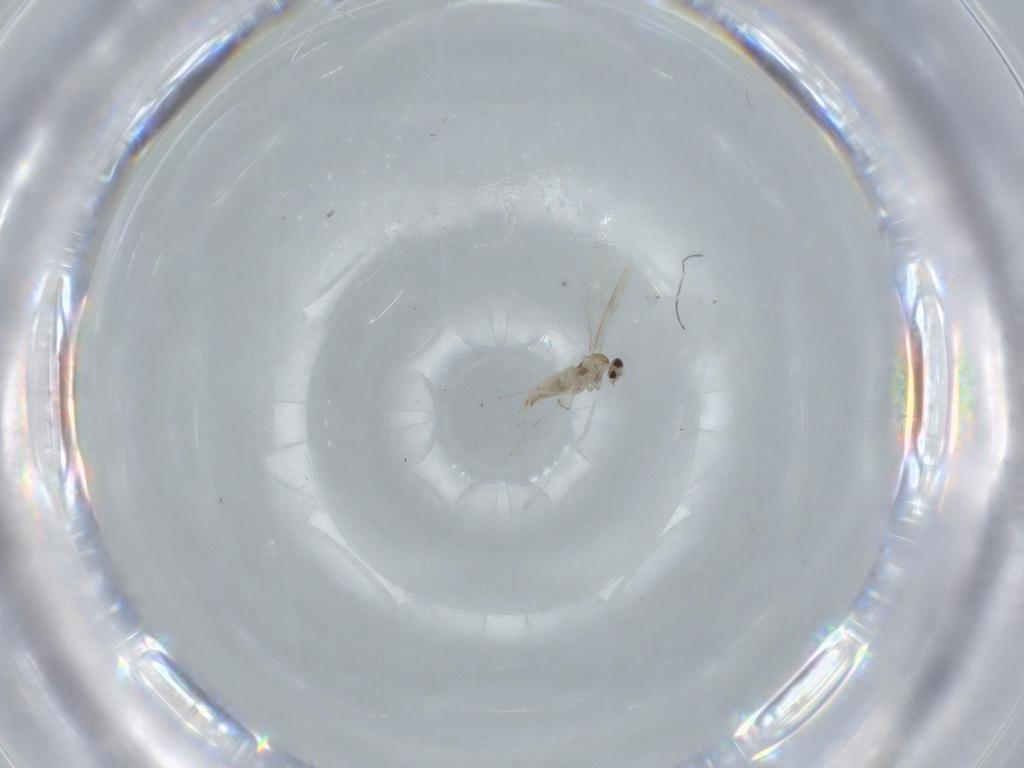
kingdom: Animalia
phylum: Arthropoda
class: Insecta
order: Diptera
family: Cecidomyiidae
